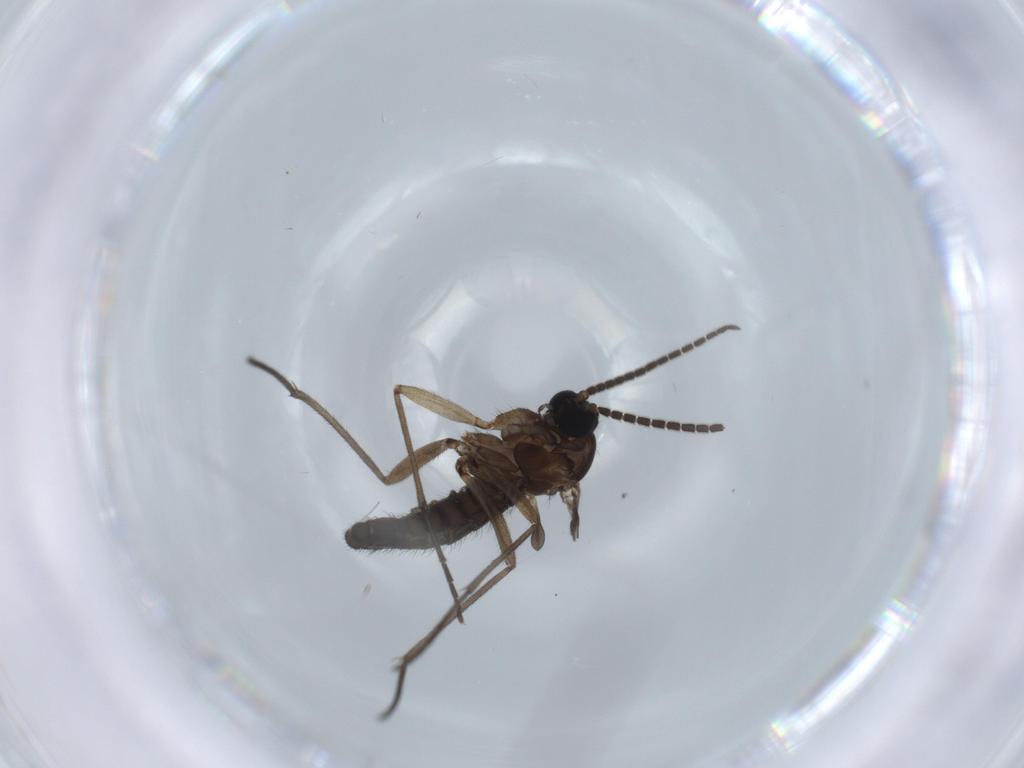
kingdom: Animalia
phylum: Arthropoda
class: Insecta
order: Diptera
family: Sciaridae
